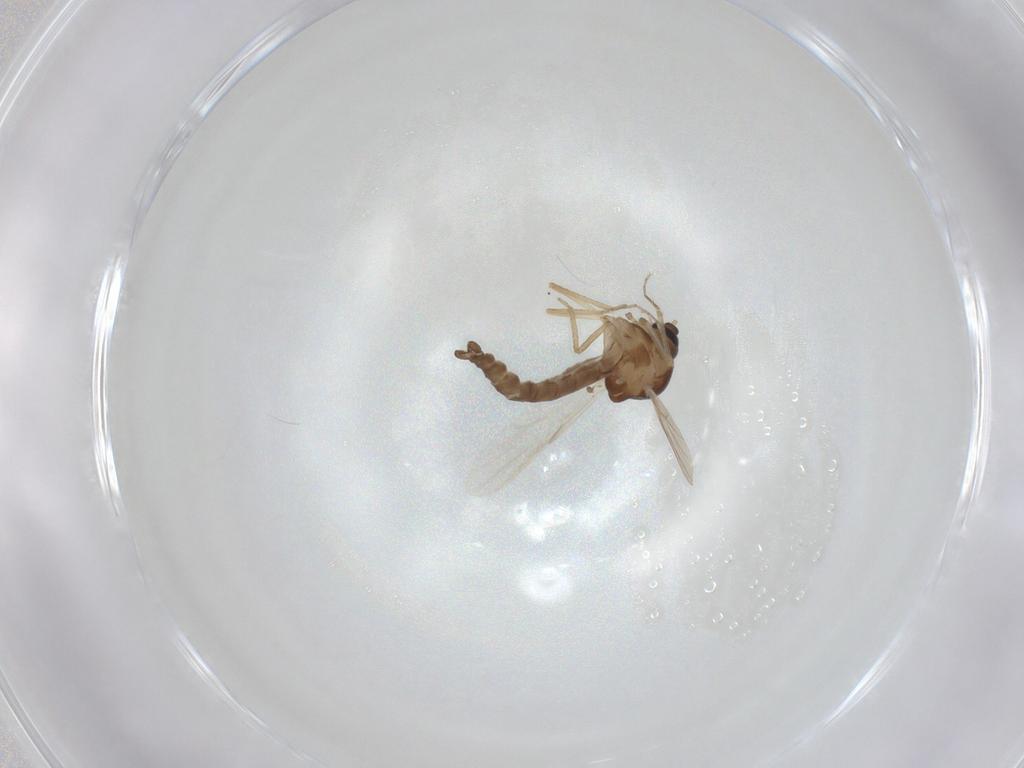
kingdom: Animalia
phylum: Arthropoda
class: Insecta
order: Diptera
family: Ceratopogonidae
